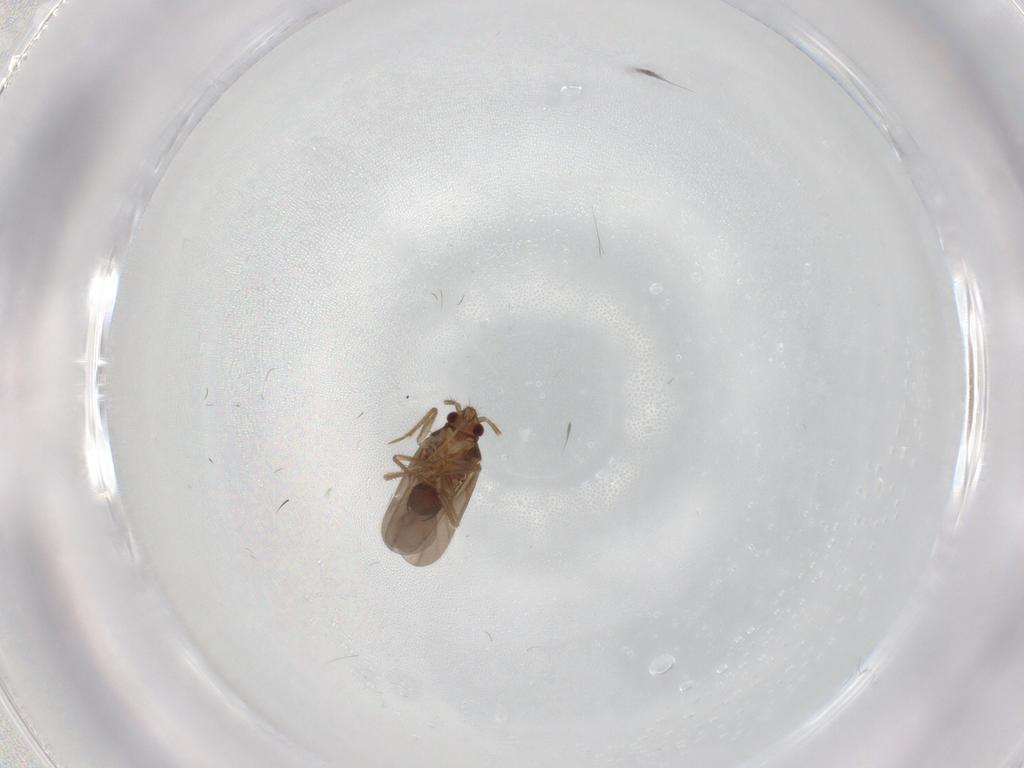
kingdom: Animalia
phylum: Arthropoda
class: Insecta
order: Hemiptera
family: Ceratocombidae
